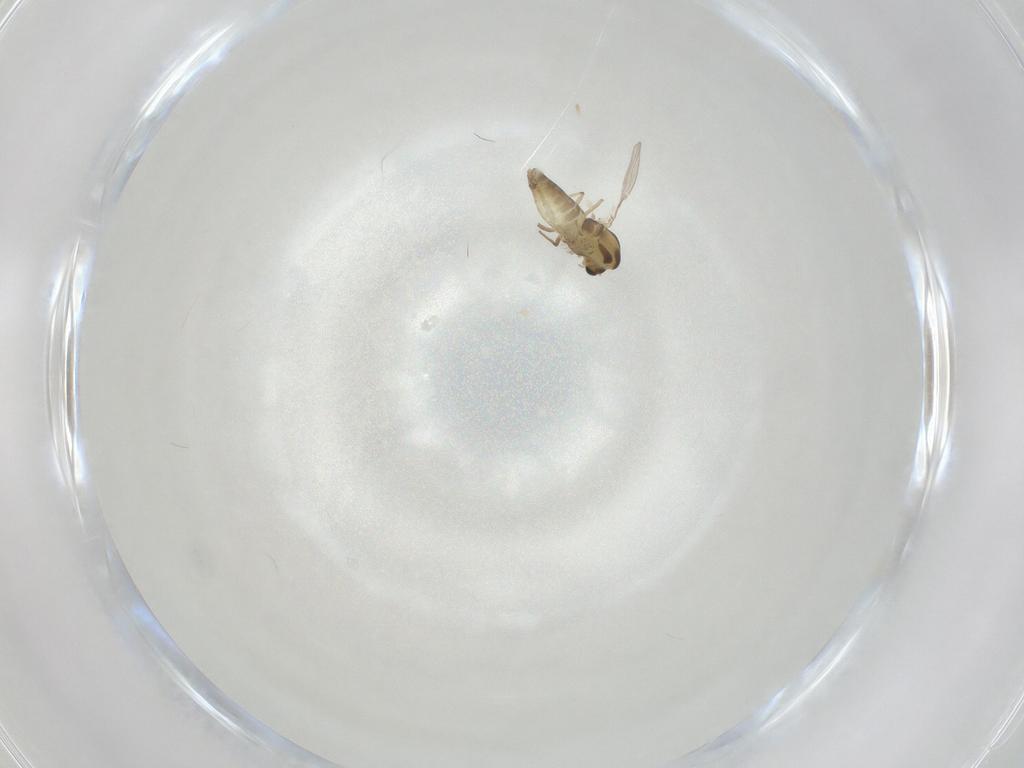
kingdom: Animalia
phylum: Arthropoda
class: Insecta
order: Diptera
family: Chironomidae
